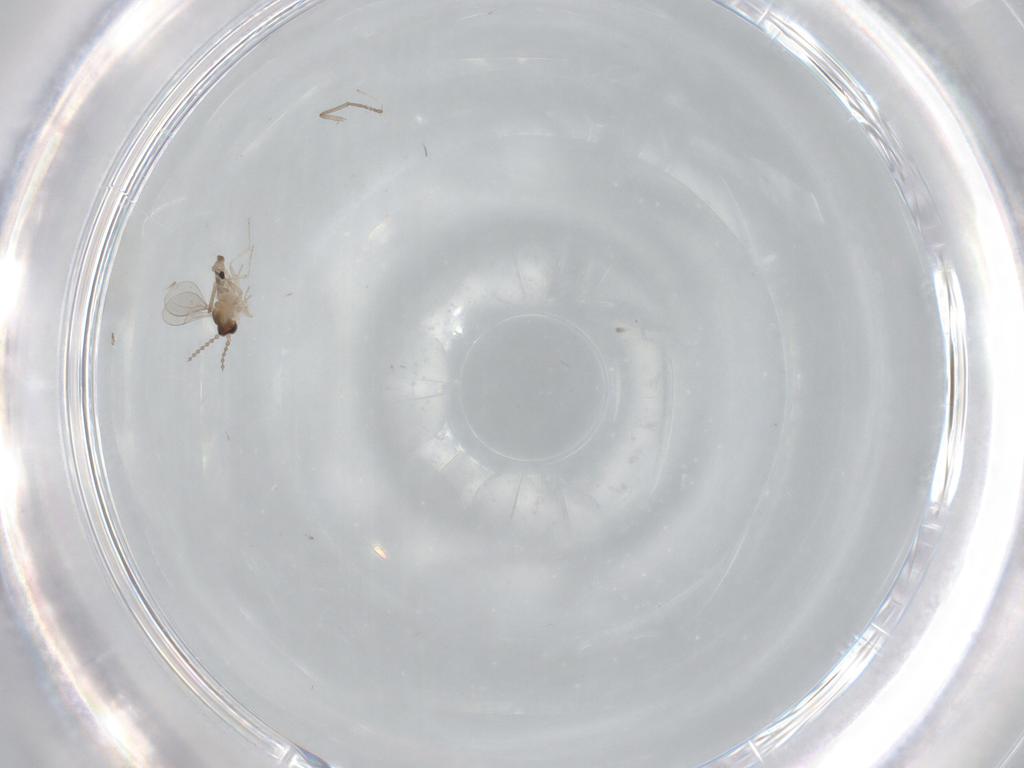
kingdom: Animalia
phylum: Arthropoda
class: Insecta
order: Diptera
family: Cecidomyiidae
